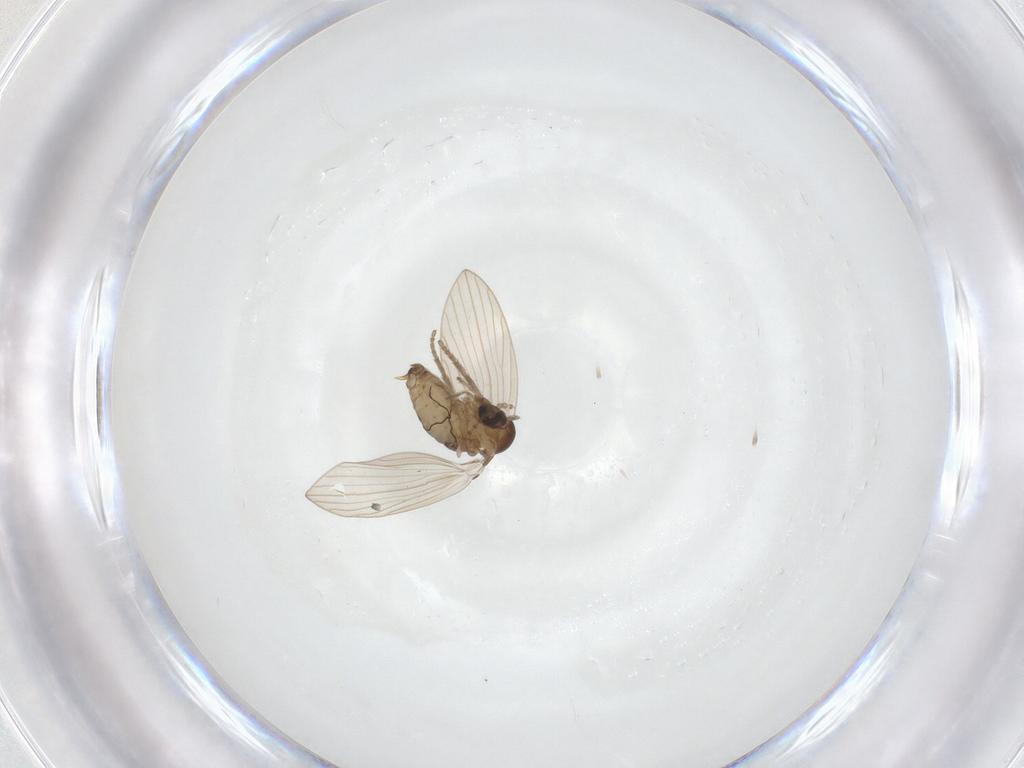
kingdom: Animalia
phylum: Arthropoda
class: Insecta
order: Diptera
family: Psychodidae
